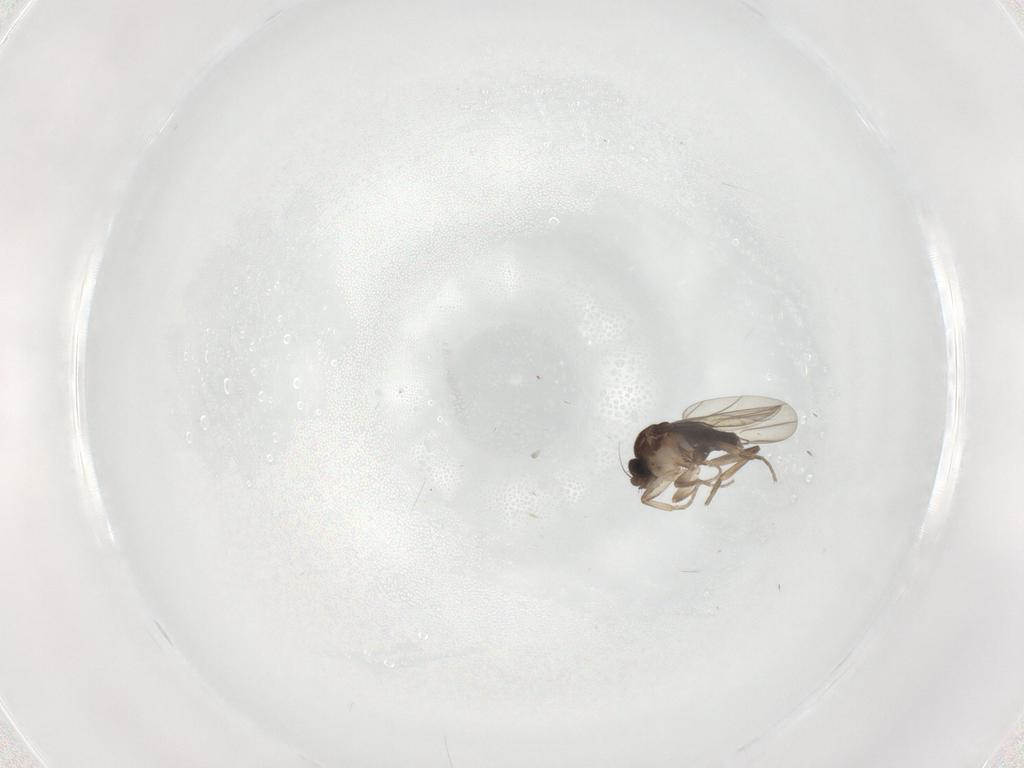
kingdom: Animalia
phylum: Arthropoda
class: Insecta
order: Diptera
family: Phoridae
